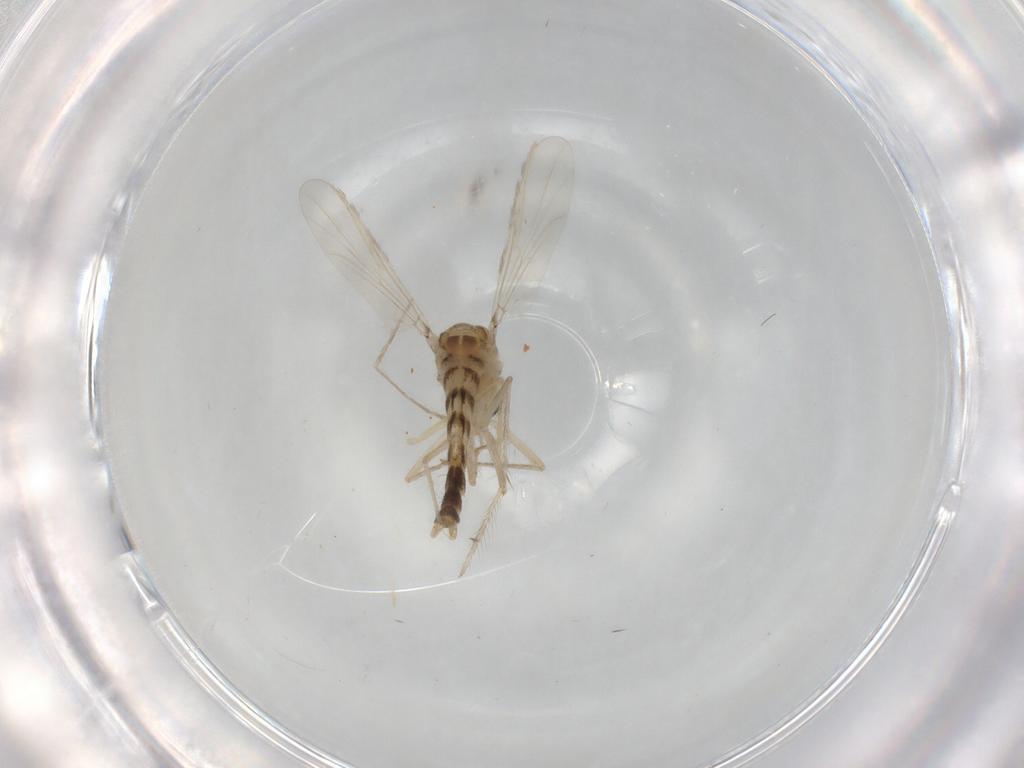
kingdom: Animalia
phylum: Arthropoda
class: Insecta
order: Diptera
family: Chironomidae
